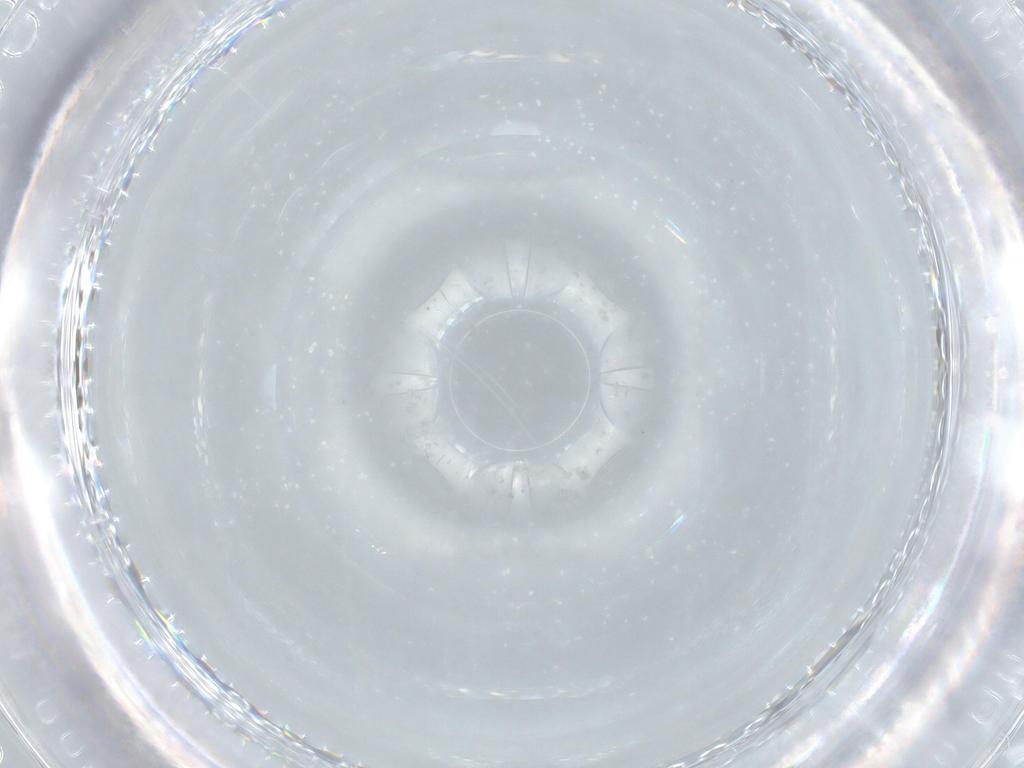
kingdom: Animalia
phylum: Arthropoda
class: Insecta
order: Diptera
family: Ceratopogonidae
